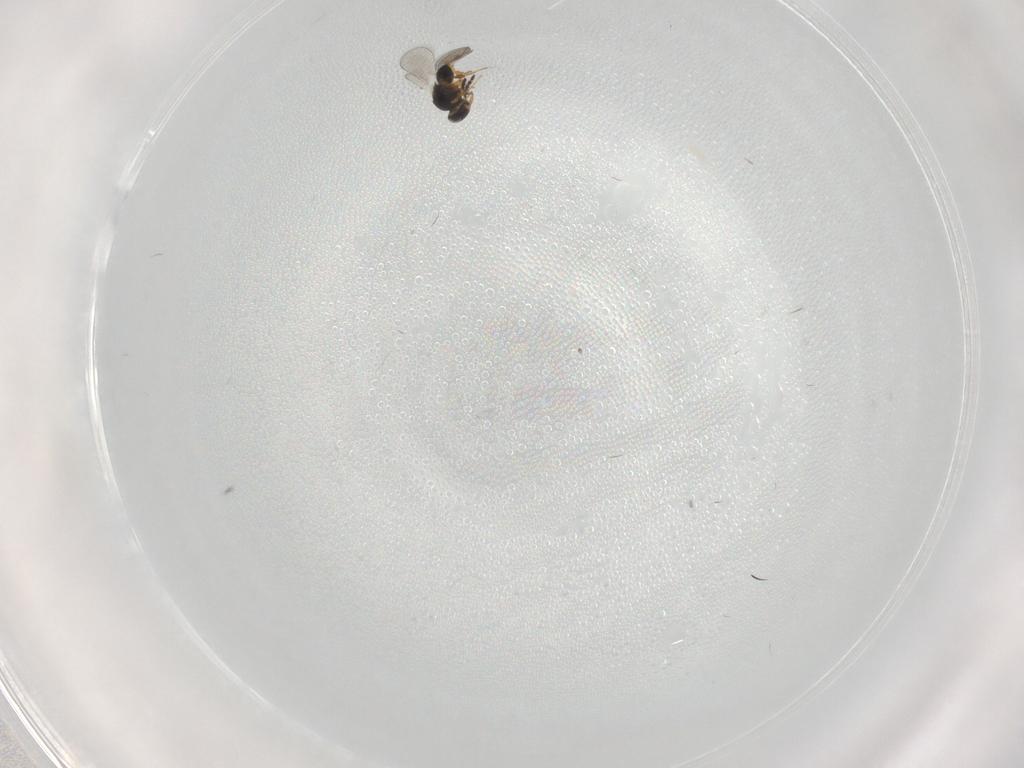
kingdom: Animalia
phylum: Arthropoda
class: Insecta
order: Hymenoptera
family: Platygastridae
